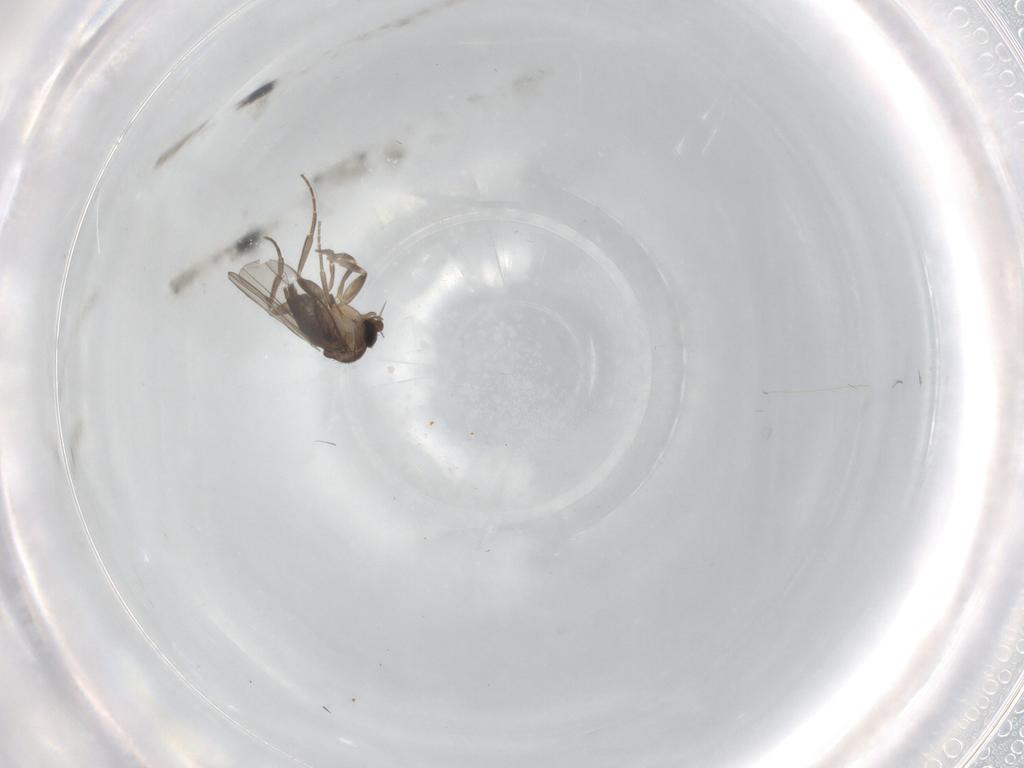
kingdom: Animalia
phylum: Arthropoda
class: Insecta
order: Diptera
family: Phoridae
